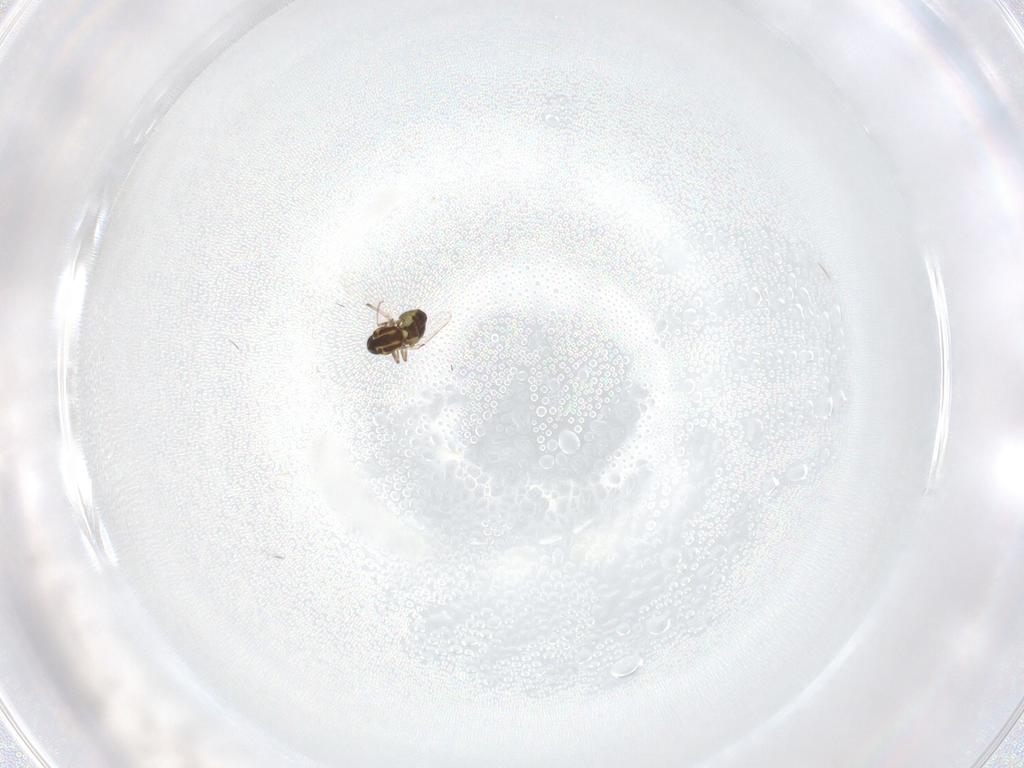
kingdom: Animalia
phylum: Arthropoda
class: Insecta
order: Diptera
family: Ceratopogonidae
